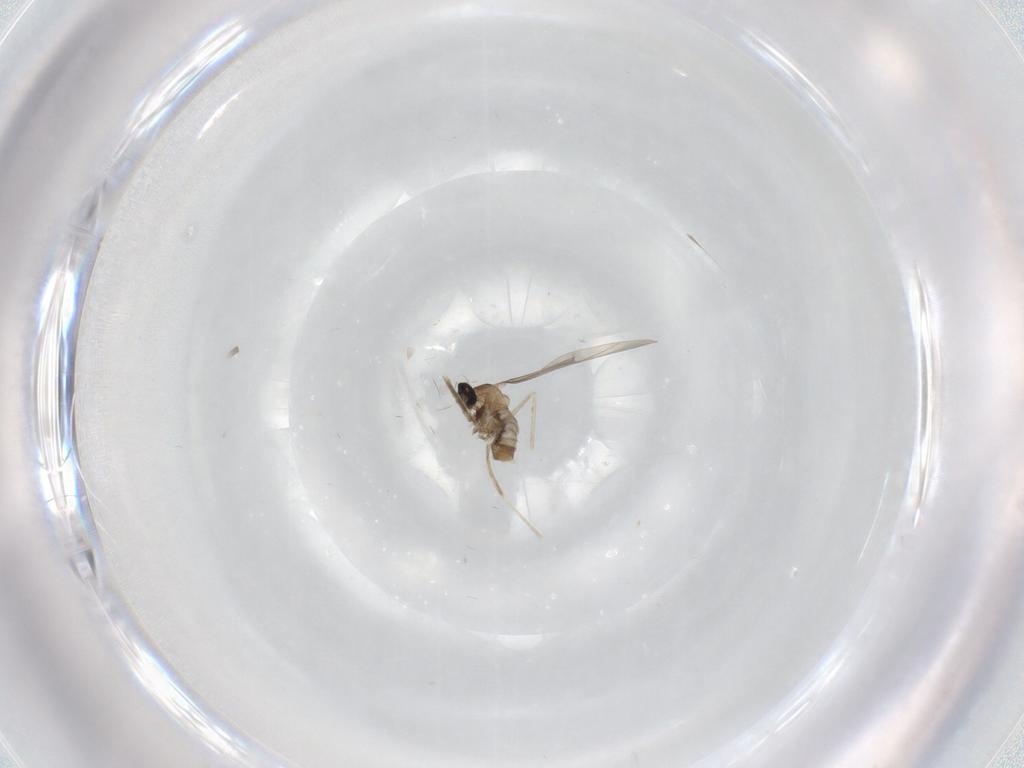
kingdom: Animalia
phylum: Arthropoda
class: Insecta
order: Diptera
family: Cecidomyiidae
